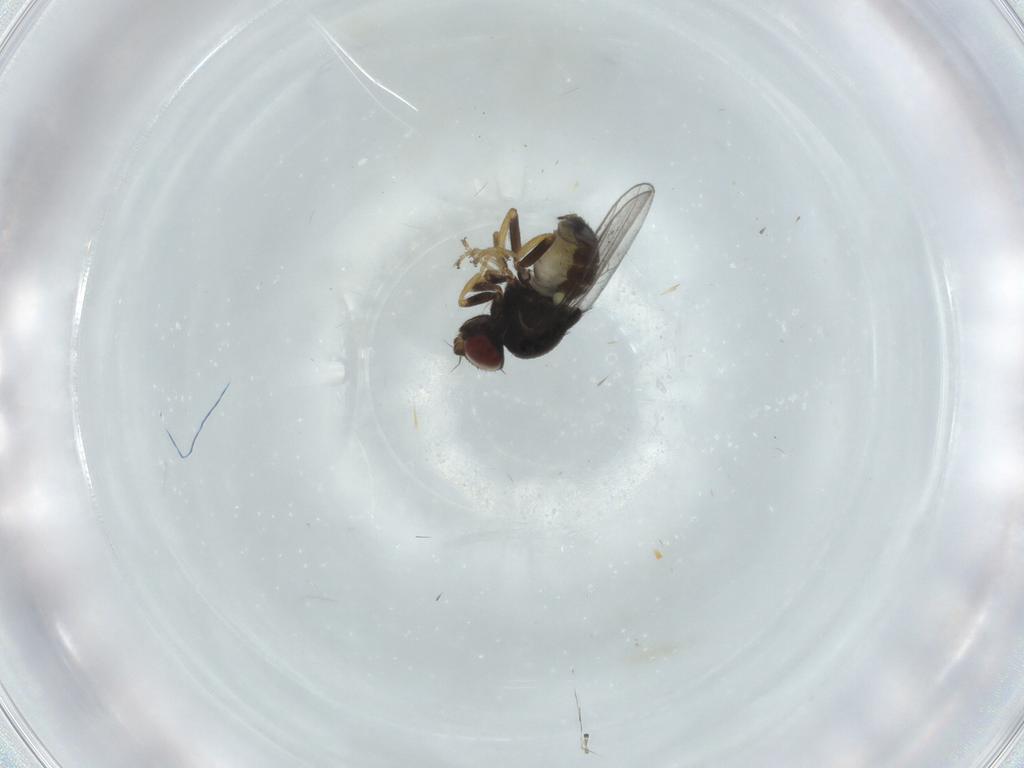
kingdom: Animalia
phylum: Arthropoda
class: Insecta
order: Diptera
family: Chloropidae
